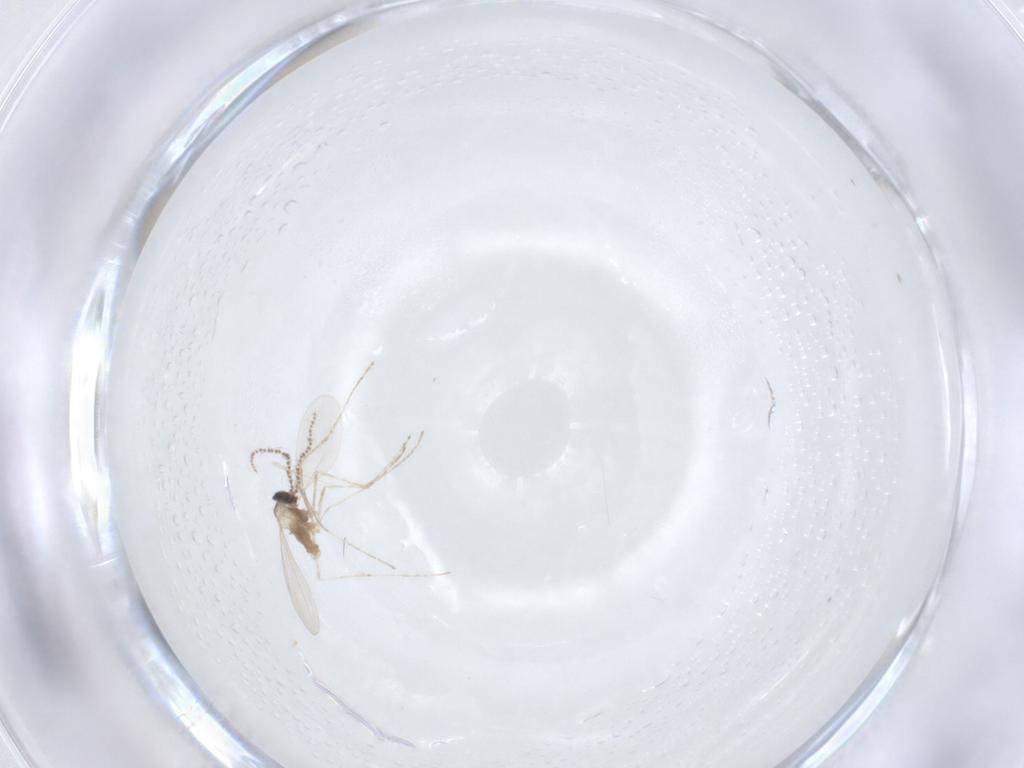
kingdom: Animalia
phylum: Arthropoda
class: Insecta
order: Diptera
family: Cecidomyiidae
